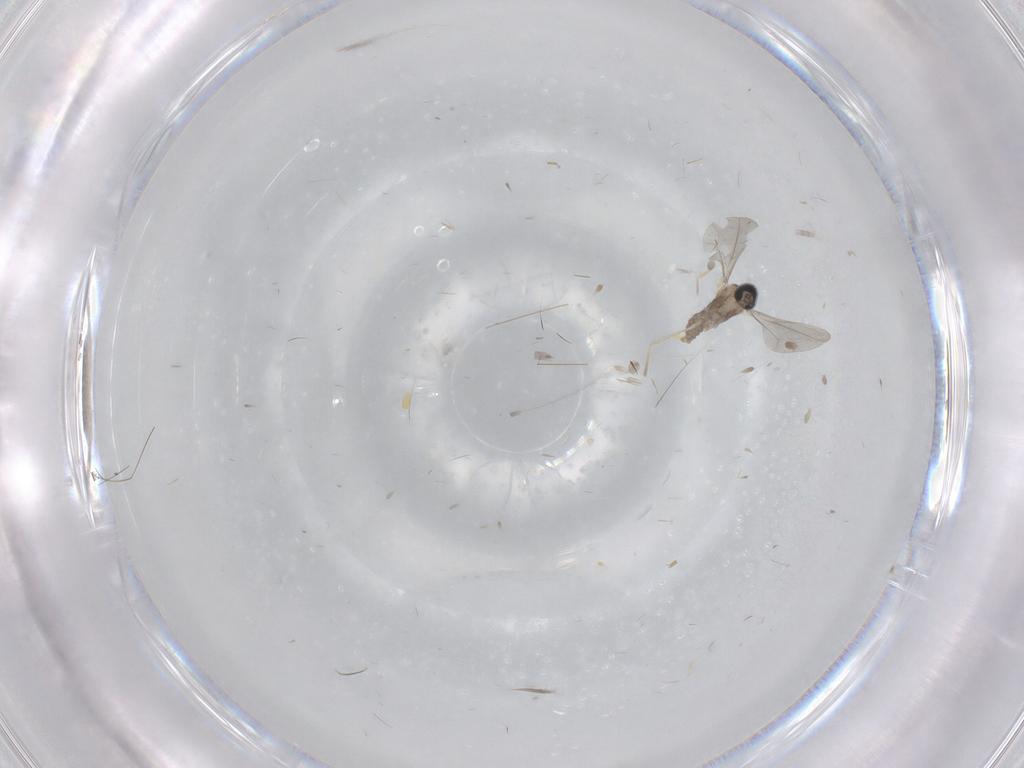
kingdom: Animalia
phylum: Arthropoda
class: Insecta
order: Diptera
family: Cecidomyiidae
